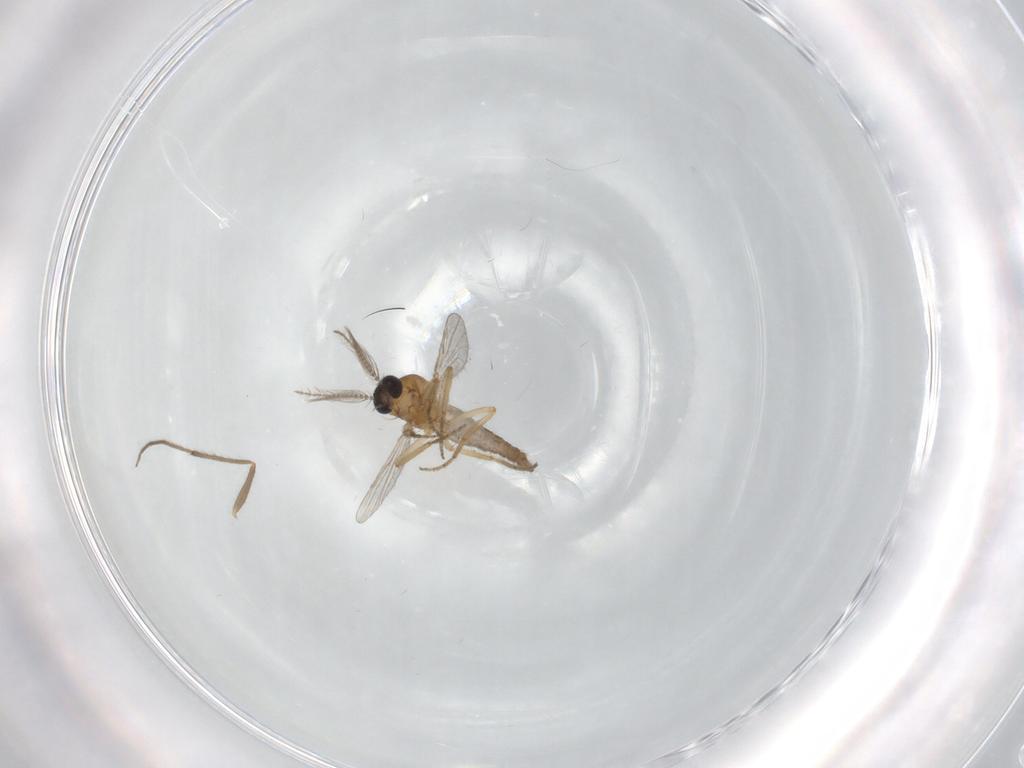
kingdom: Animalia
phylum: Arthropoda
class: Insecta
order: Diptera
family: Ceratopogonidae
